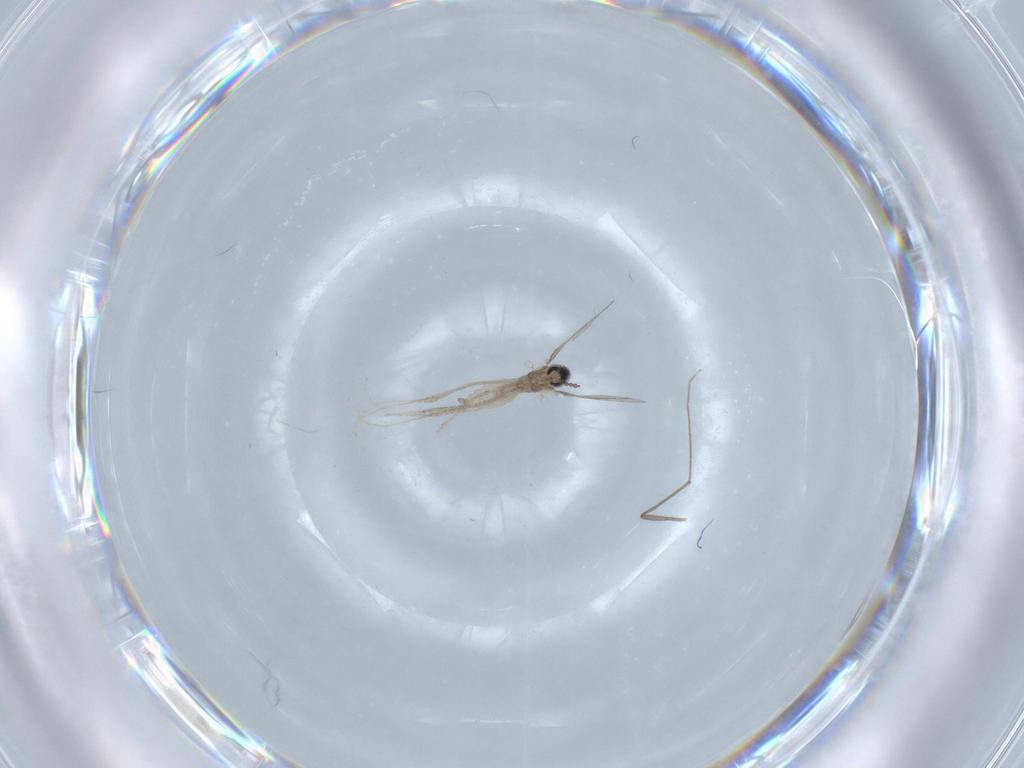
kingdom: Animalia
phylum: Arthropoda
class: Insecta
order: Diptera
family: Cecidomyiidae
